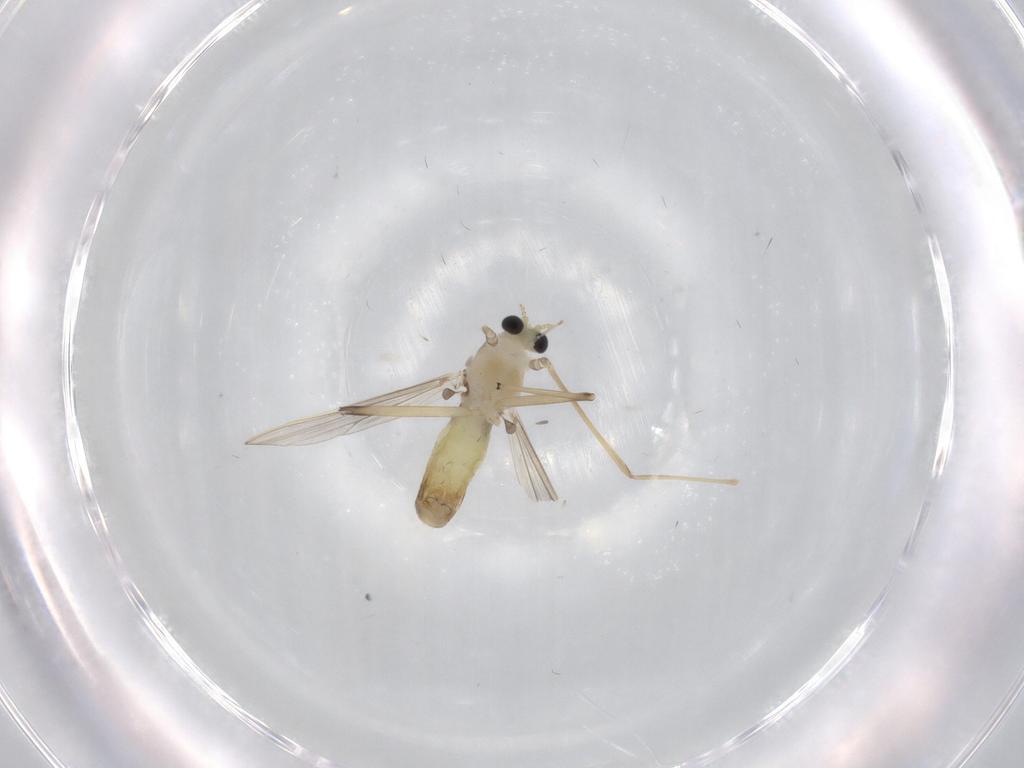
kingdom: Animalia
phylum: Arthropoda
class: Insecta
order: Diptera
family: Chironomidae
